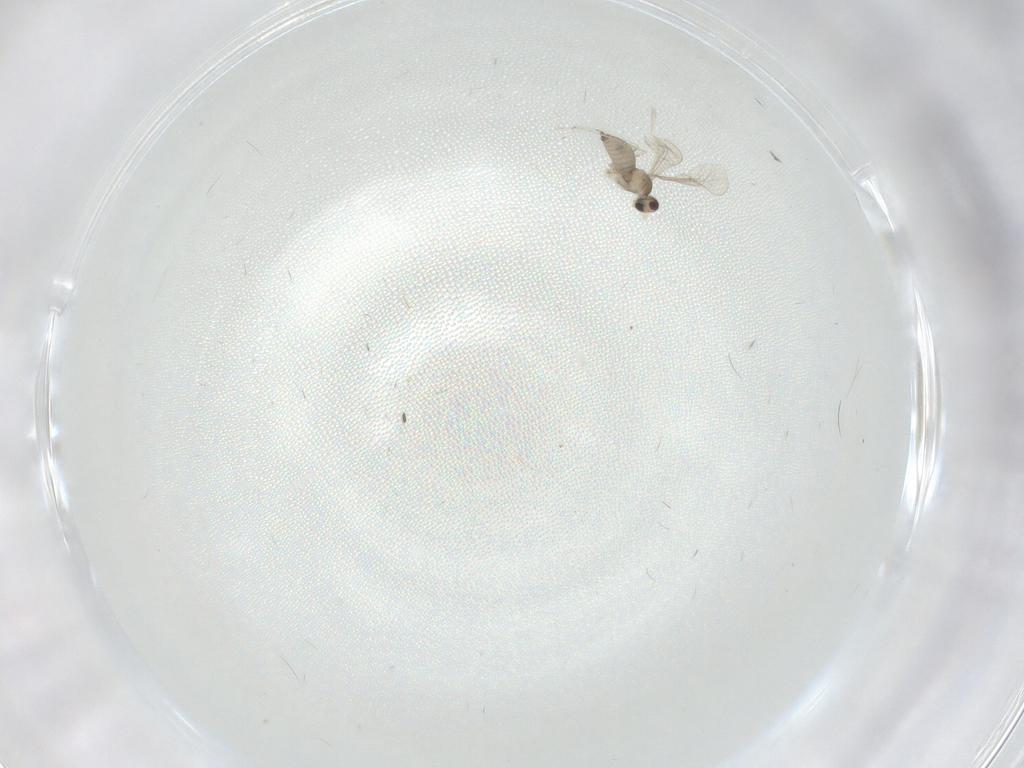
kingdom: Animalia
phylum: Arthropoda
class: Insecta
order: Diptera
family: Cecidomyiidae
